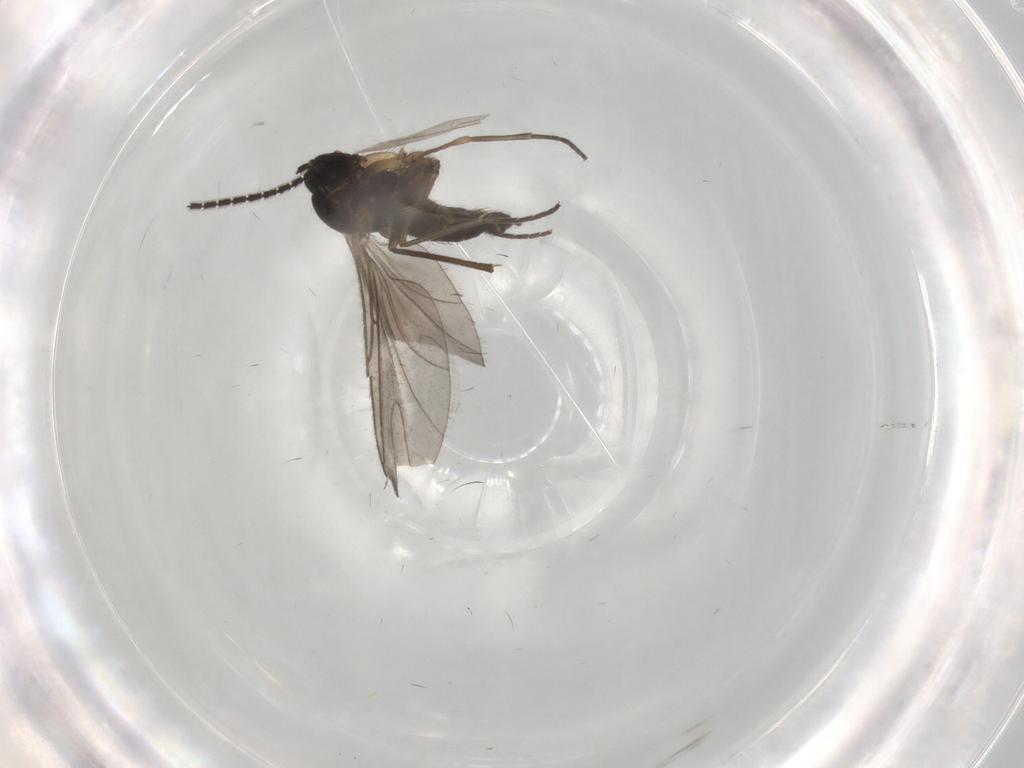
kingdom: Animalia
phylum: Arthropoda
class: Insecta
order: Diptera
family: Sciaridae
